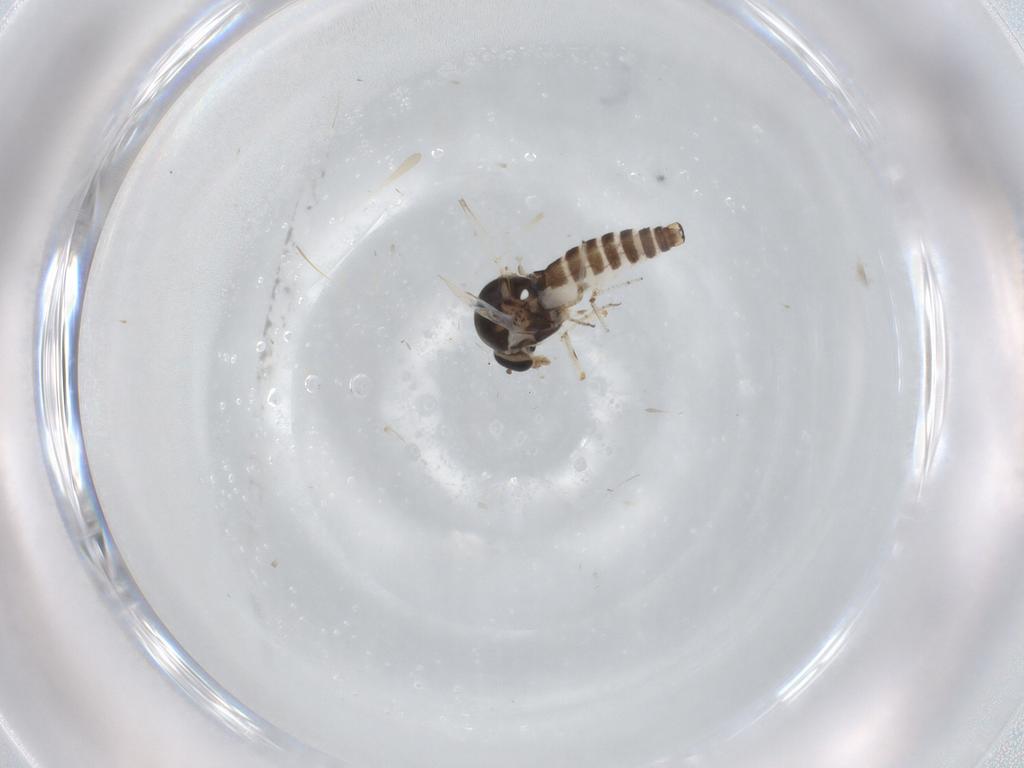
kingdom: Animalia
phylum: Arthropoda
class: Insecta
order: Diptera
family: Ceratopogonidae
